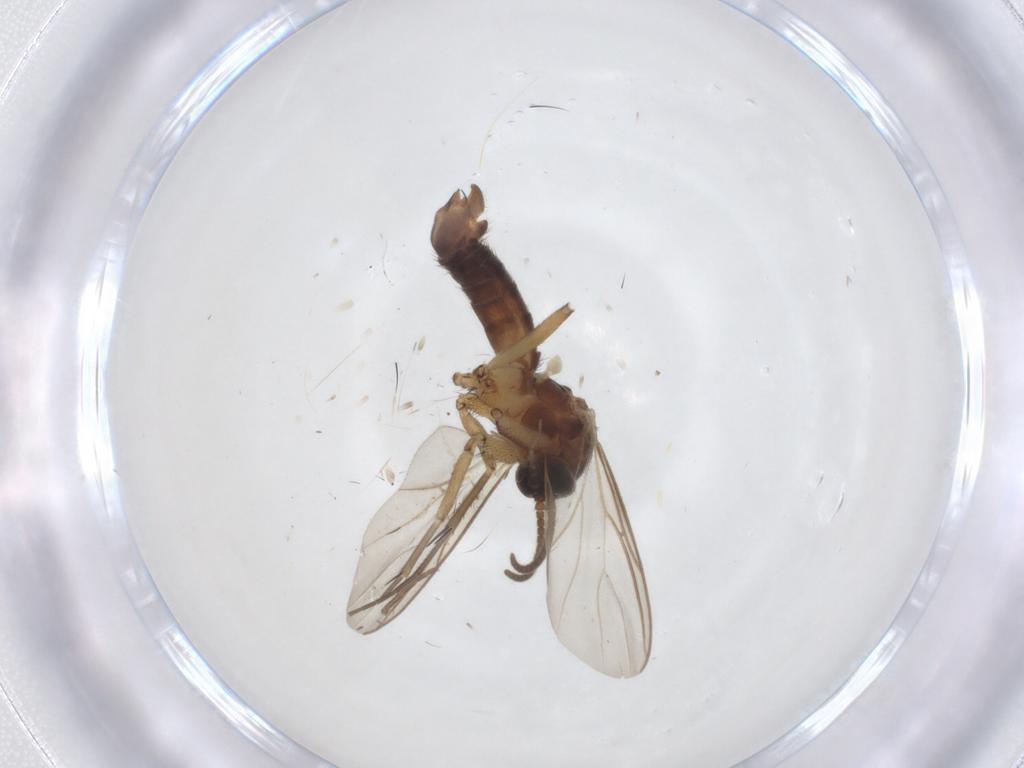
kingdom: Animalia
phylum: Arthropoda
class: Insecta
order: Diptera
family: Mycetophilidae
